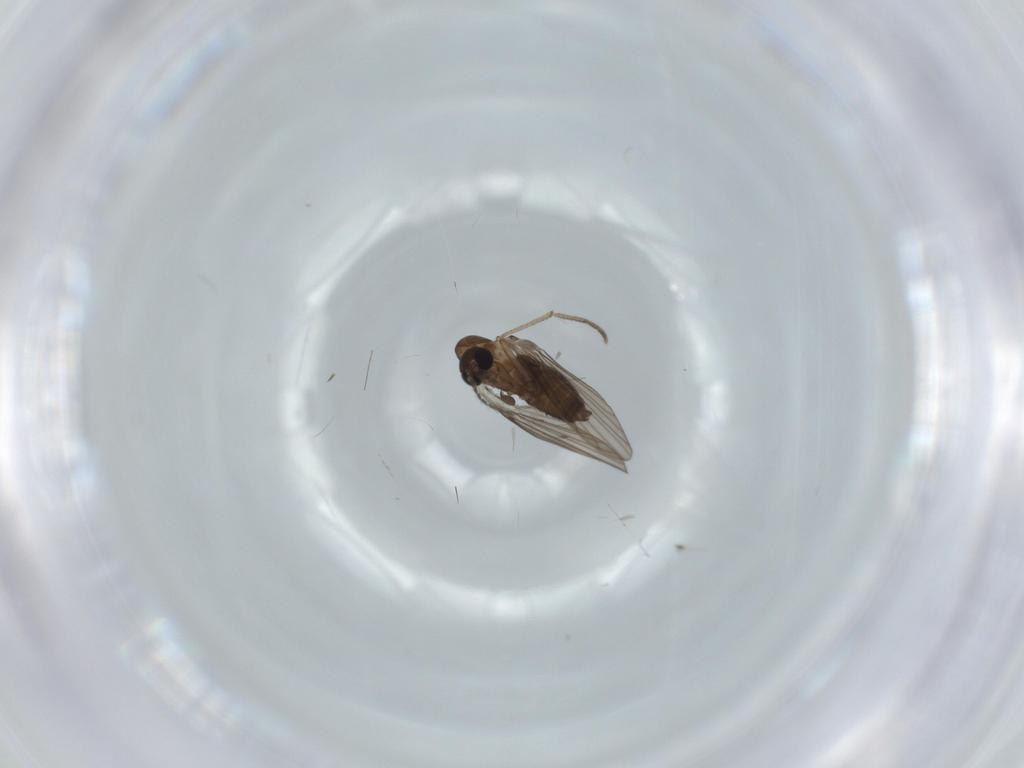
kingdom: Animalia
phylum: Arthropoda
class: Insecta
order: Diptera
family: Psychodidae
